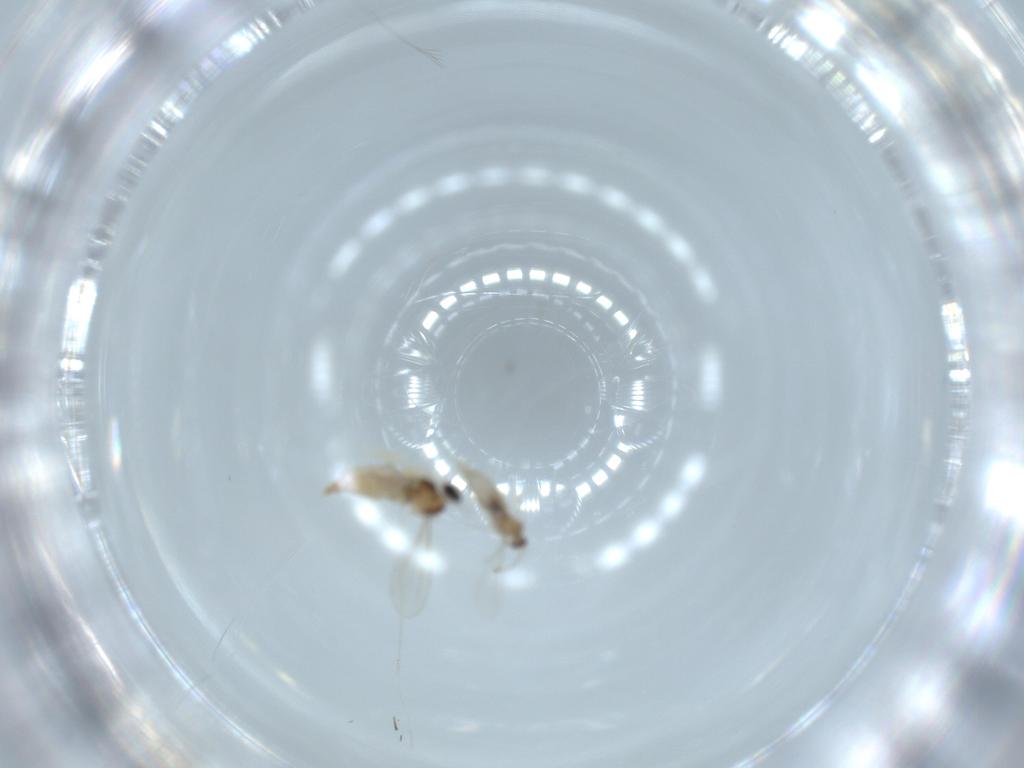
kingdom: Animalia
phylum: Arthropoda
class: Insecta
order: Diptera
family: Cecidomyiidae
